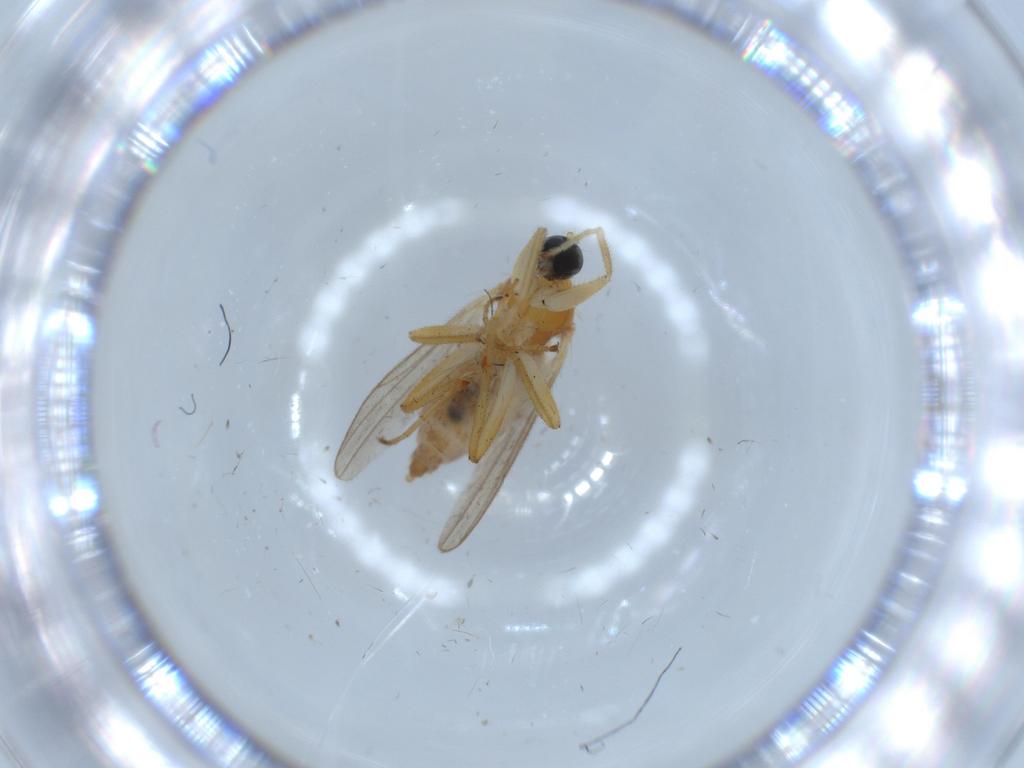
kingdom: Animalia
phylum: Arthropoda
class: Insecta
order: Diptera
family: Hybotidae
